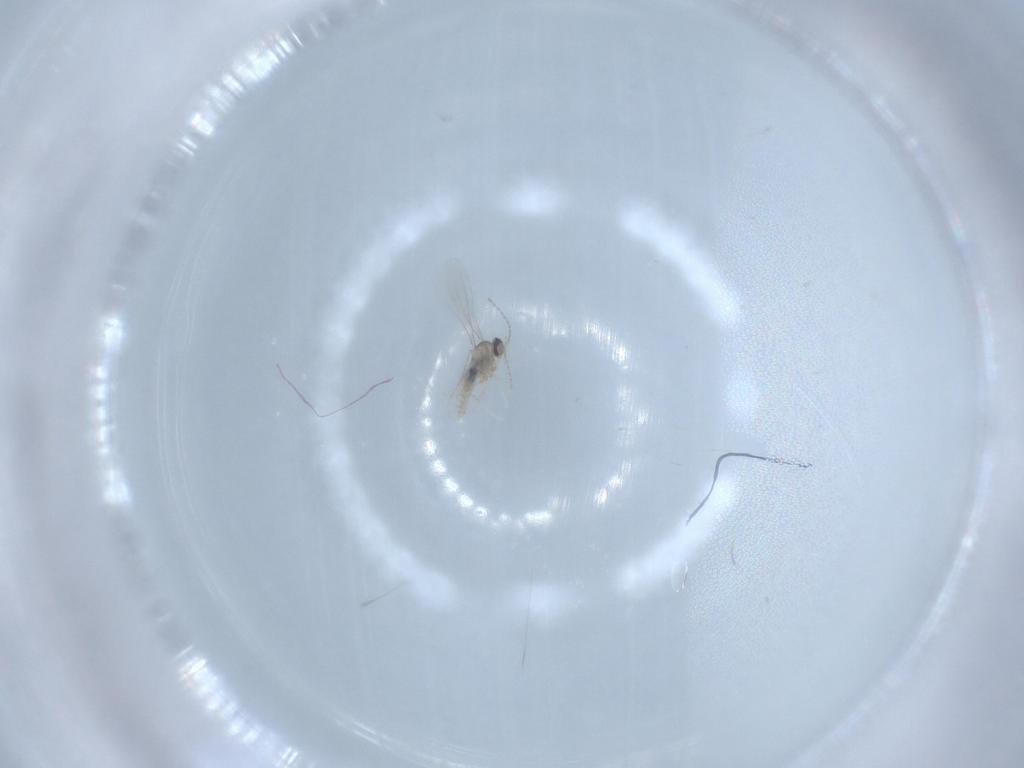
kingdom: Animalia
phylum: Arthropoda
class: Insecta
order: Diptera
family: Cecidomyiidae
